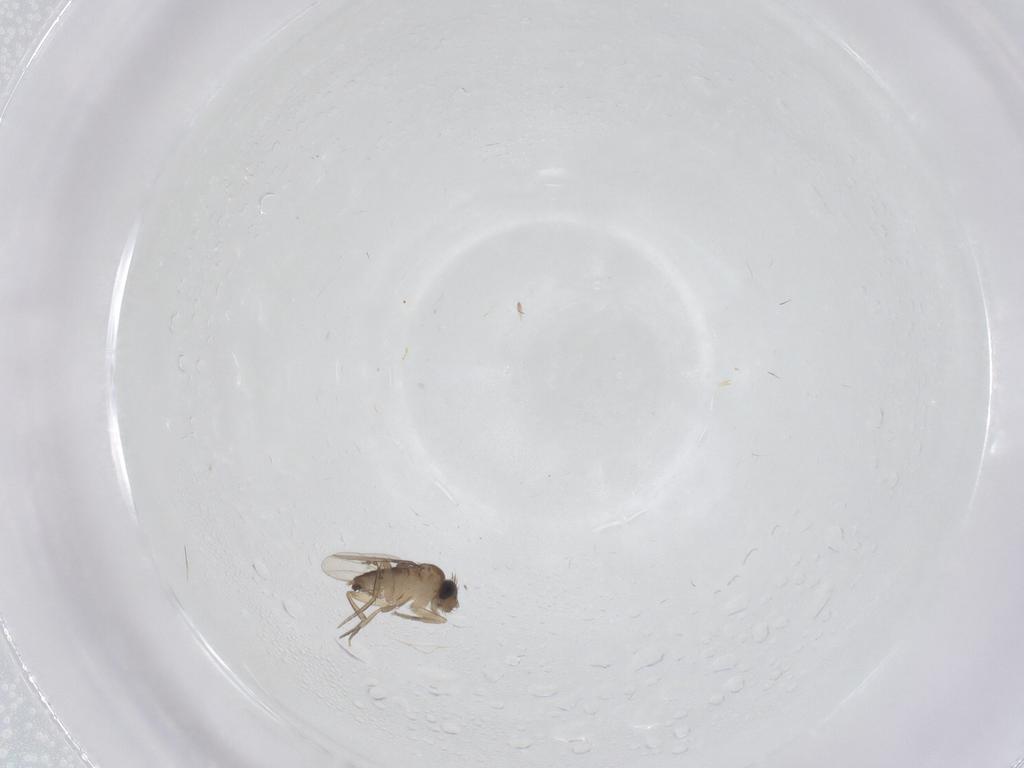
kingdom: Animalia
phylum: Arthropoda
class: Insecta
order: Diptera
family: Phoridae
